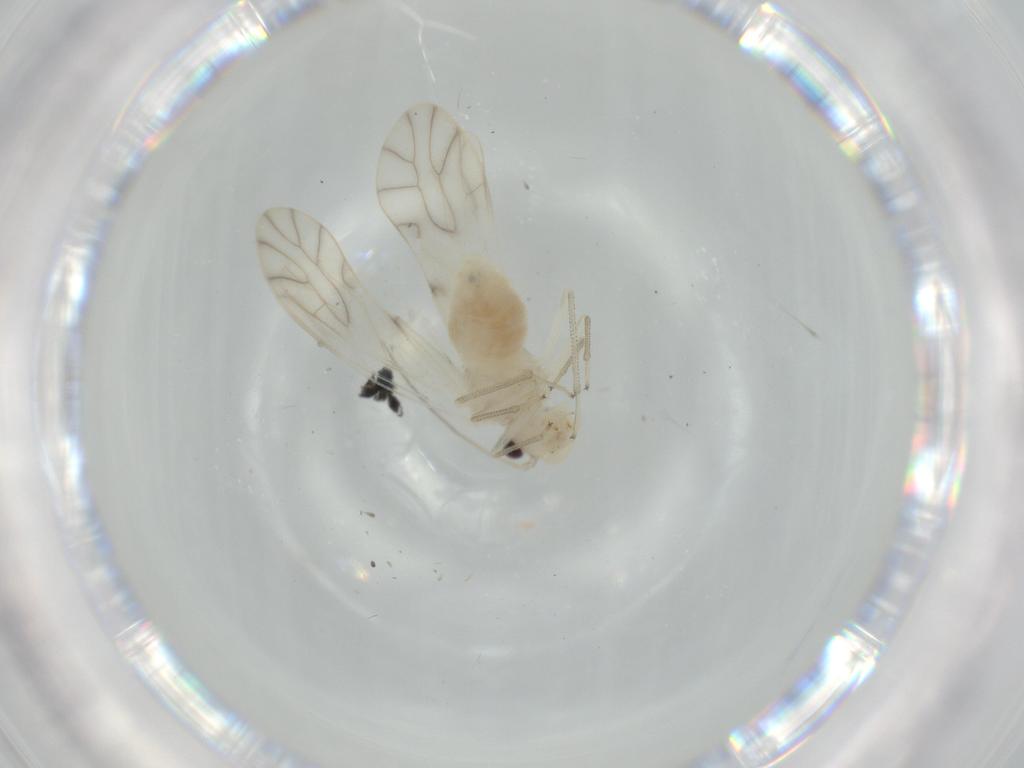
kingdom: Animalia
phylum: Arthropoda
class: Insecta
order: Psocodea
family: Caeciliusidae
